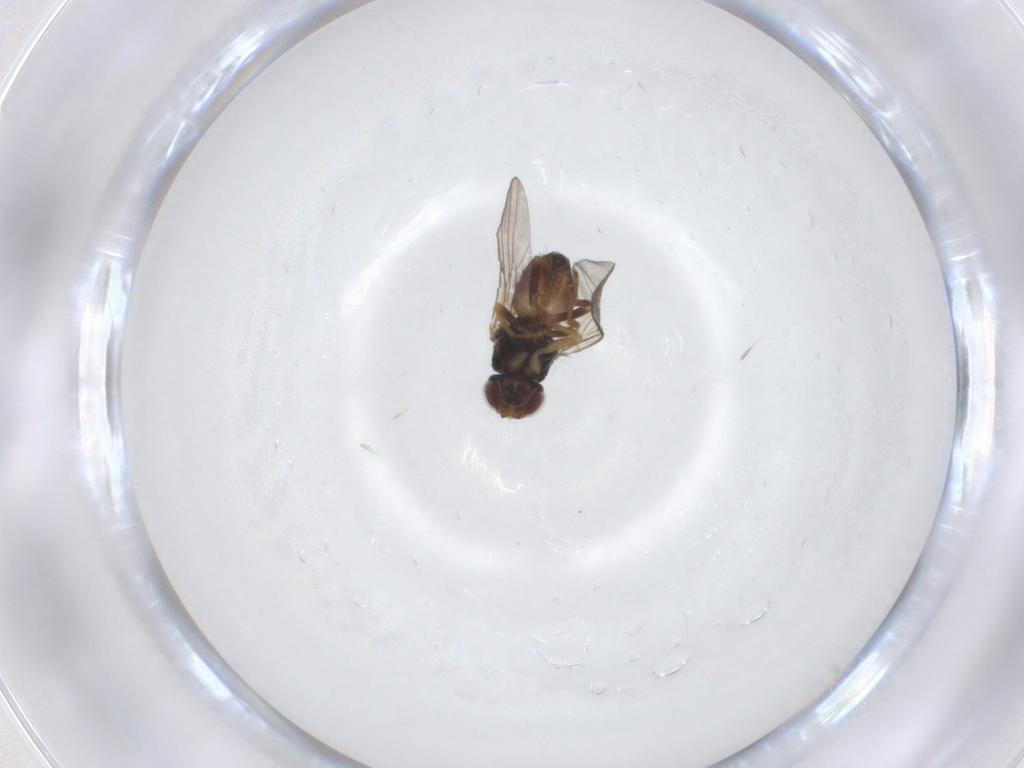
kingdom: Animalia
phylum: Arthropoda
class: Insecta
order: Diptera
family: Chloropidae
